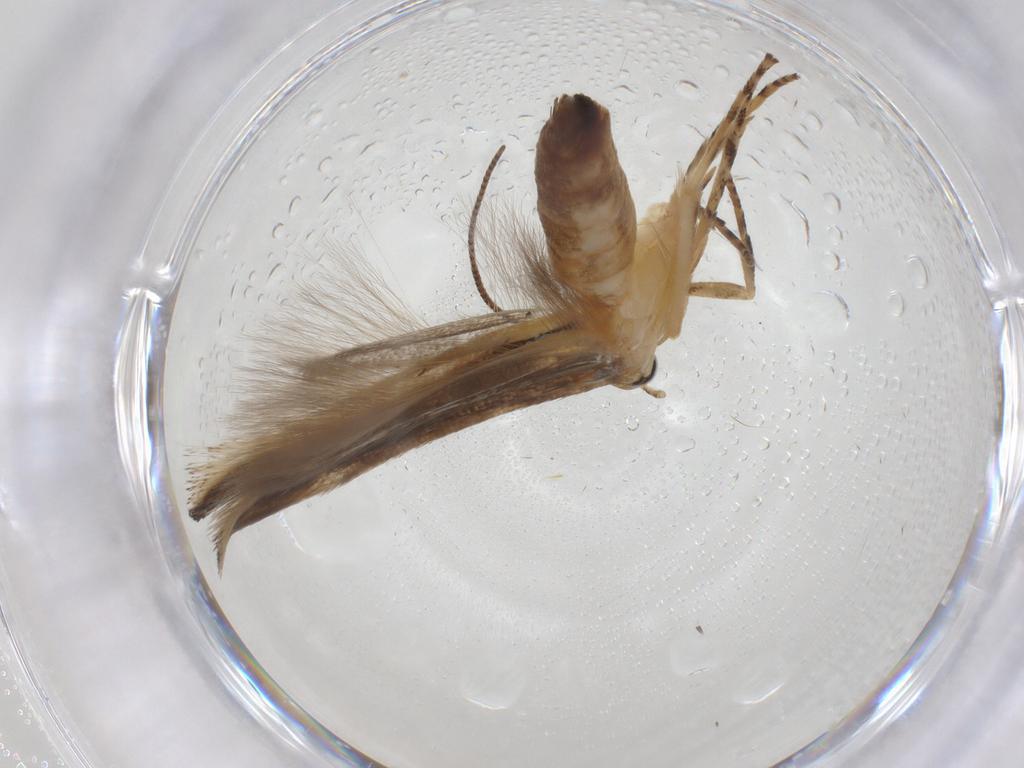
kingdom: Animalia
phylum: Arthropoda
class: Insecta
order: Lepidoptera
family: Momphidae
